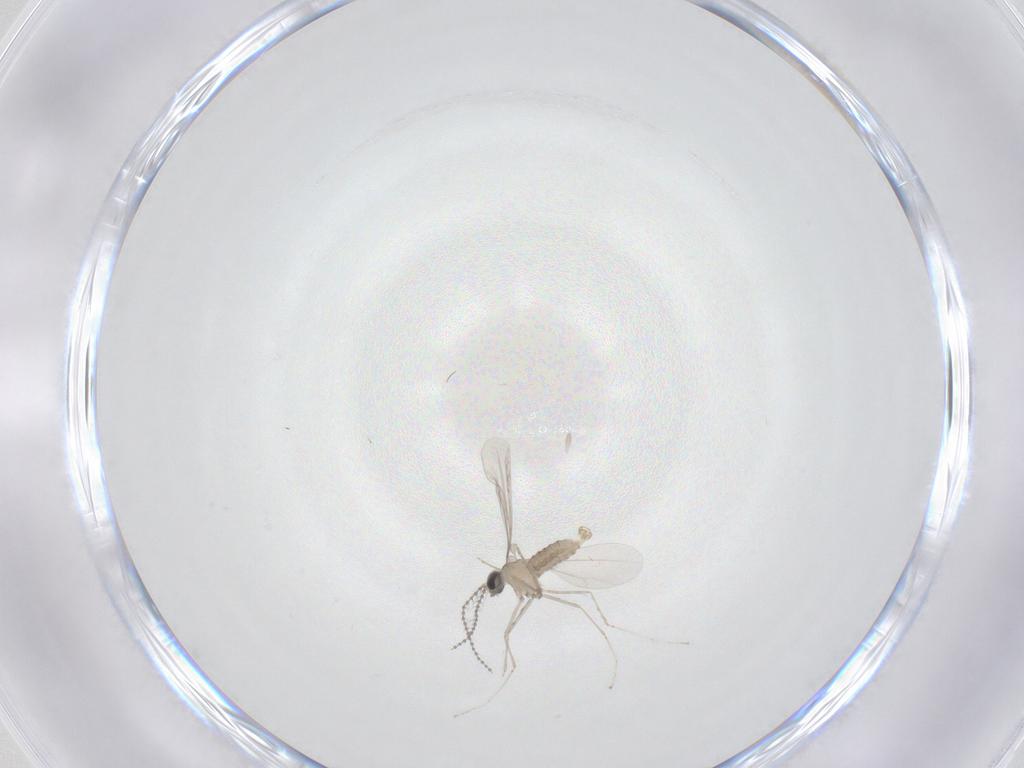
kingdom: Animalia
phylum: Arthropoda
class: Insecta
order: Diptera
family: Cecidomyiidae
